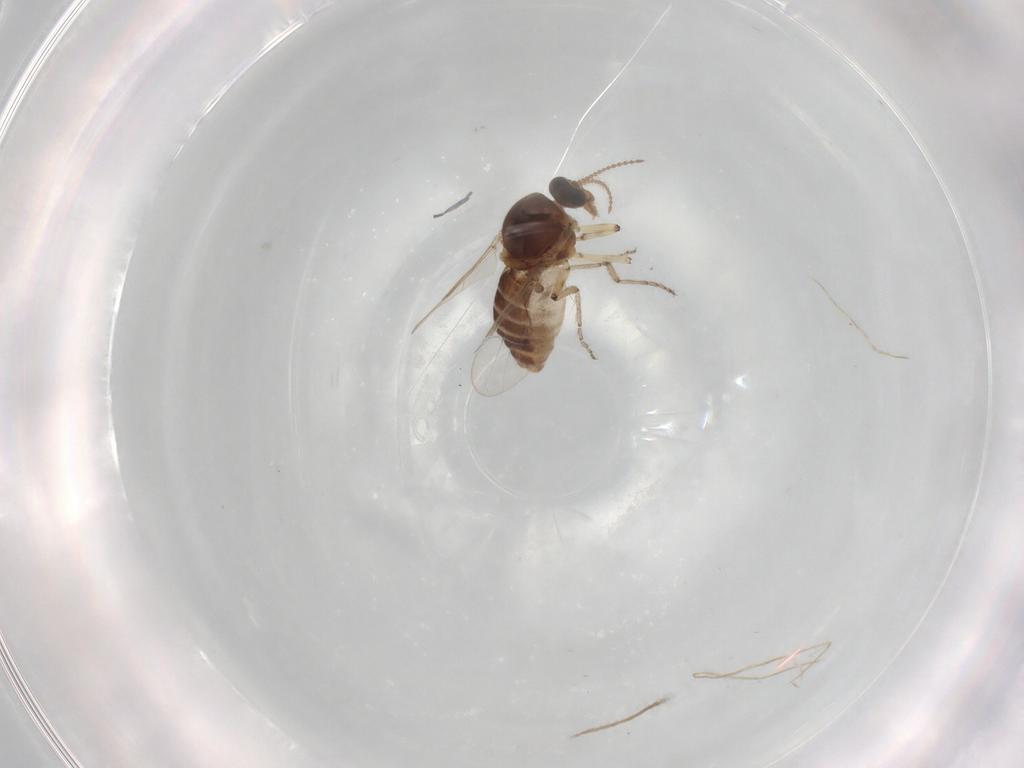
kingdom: Animalia
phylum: Arthropoda
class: Insecta
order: Diptera
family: Ceratopogonidae
